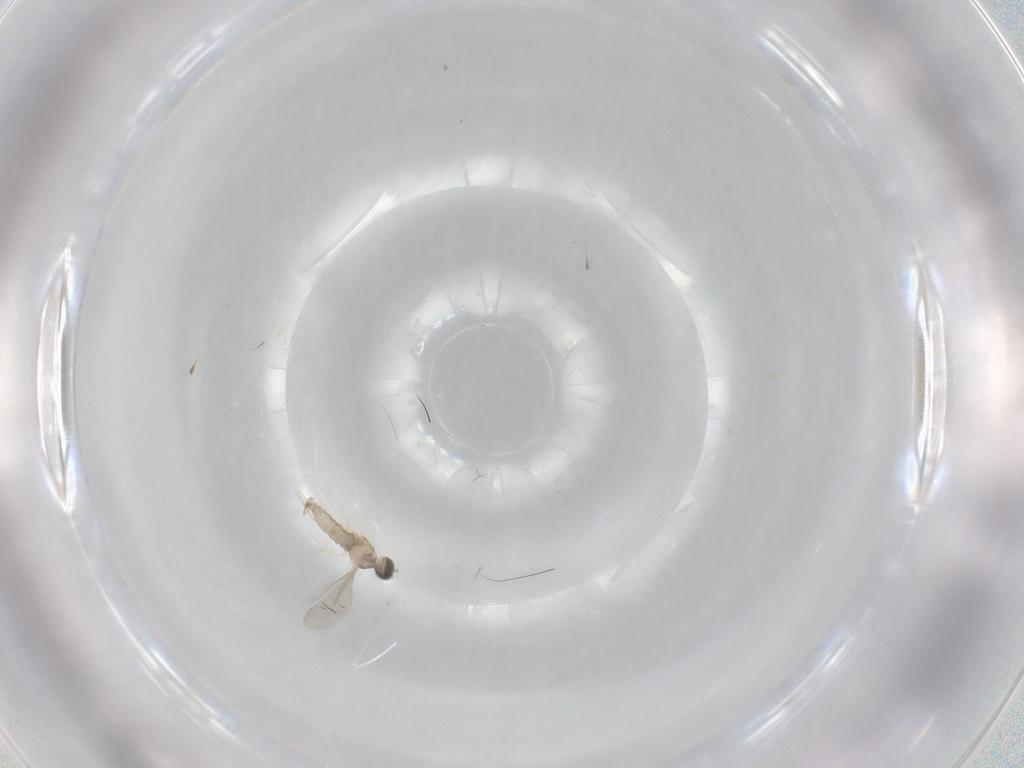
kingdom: Animalia
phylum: Arthropoda
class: Insecta
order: Diptera
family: Cecidomyiidae
